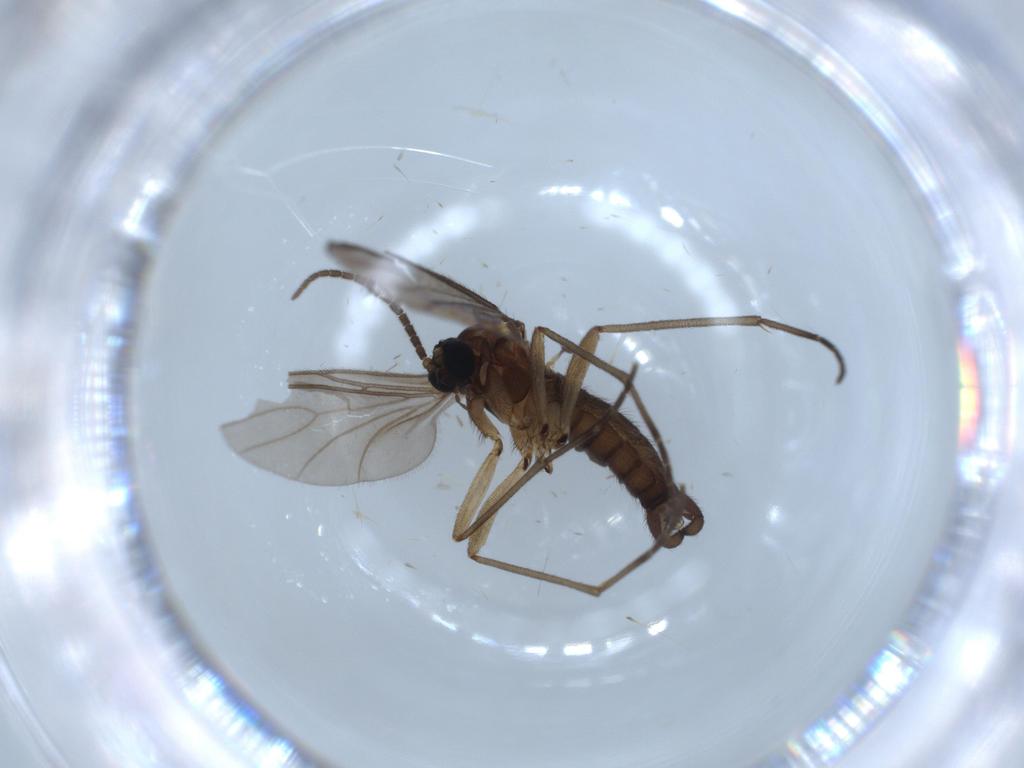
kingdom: Animalia
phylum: Arthropoda
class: Insecta
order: Diptera
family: Sciaridae
